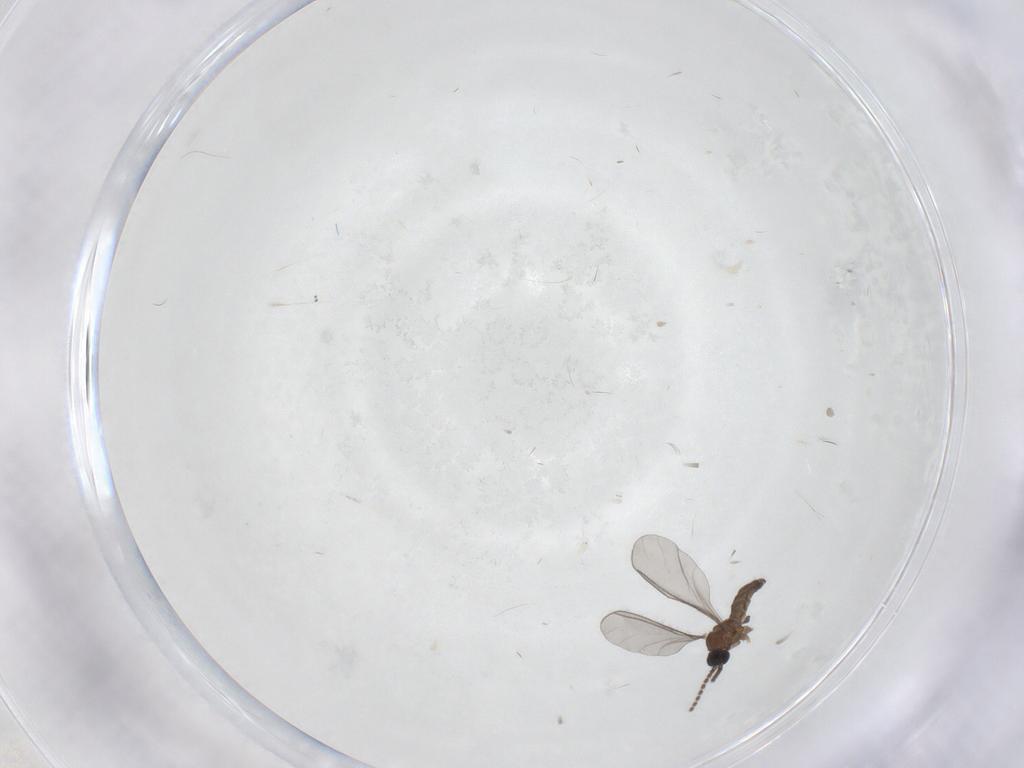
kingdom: Animalia
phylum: Arthropoda
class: Insecta
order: Diptera
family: Sciaridae
